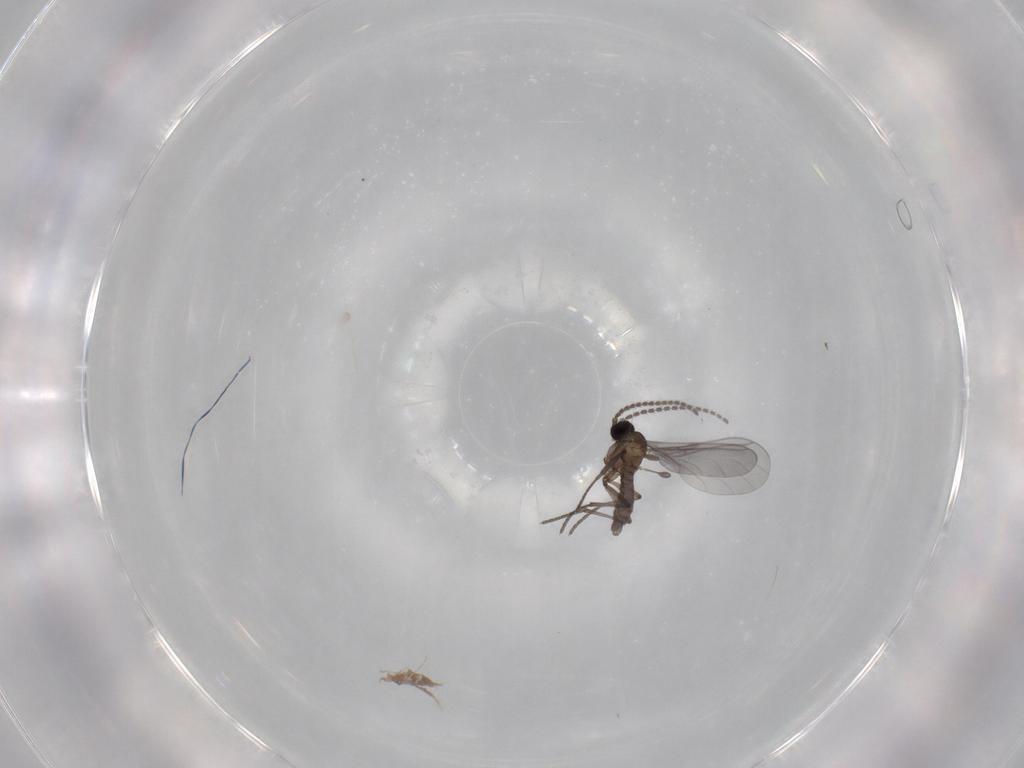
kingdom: Animalia
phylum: Arthropoda
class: Insecta
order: Diptera
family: Sciaridae
